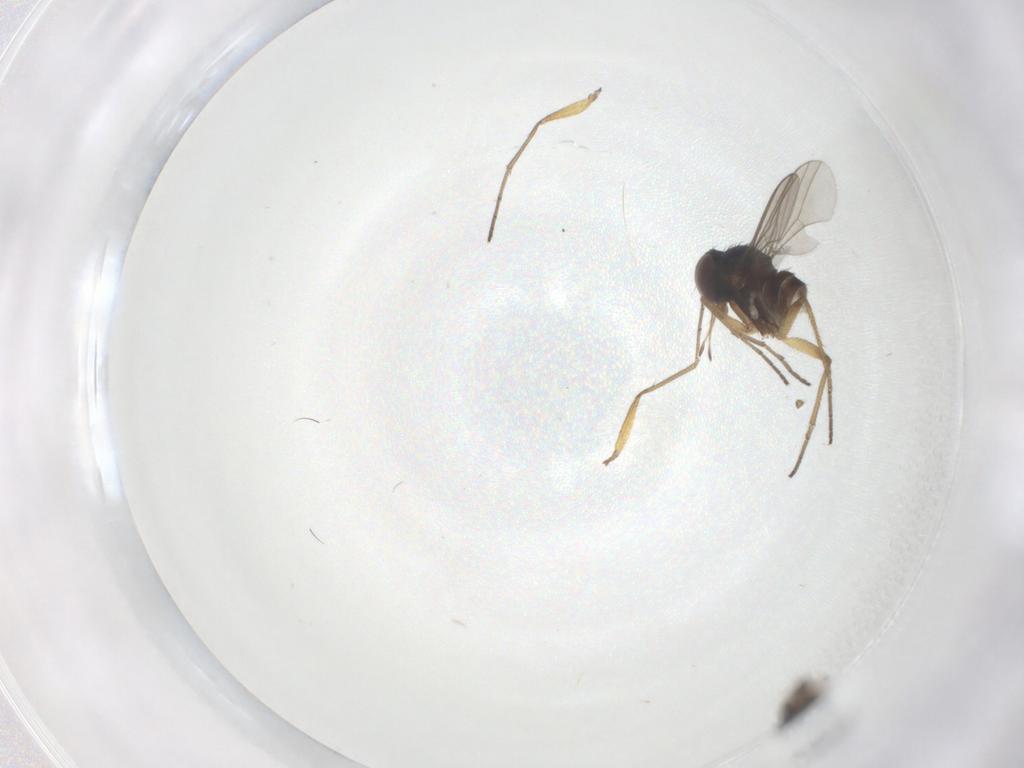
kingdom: Animalia
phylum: Arthropoda
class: Insecta
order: Diptera
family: Dolichopodidae
